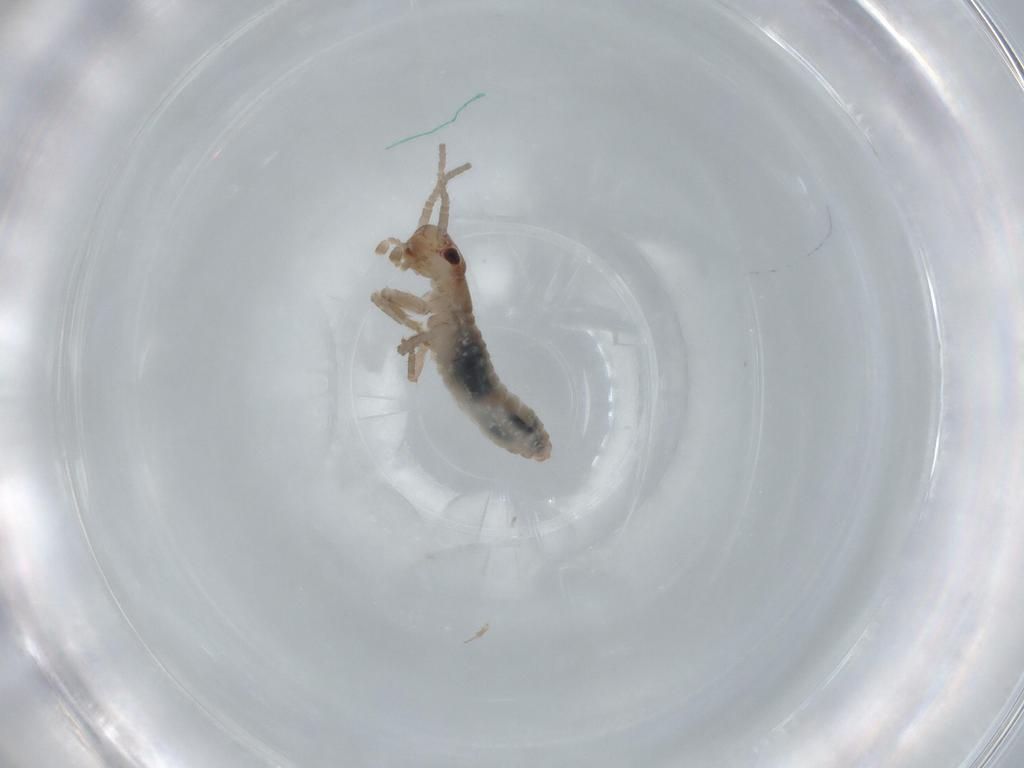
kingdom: Animalia
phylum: Arthropoda
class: Insecta
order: Orthoptera
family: Mogoplistidae
